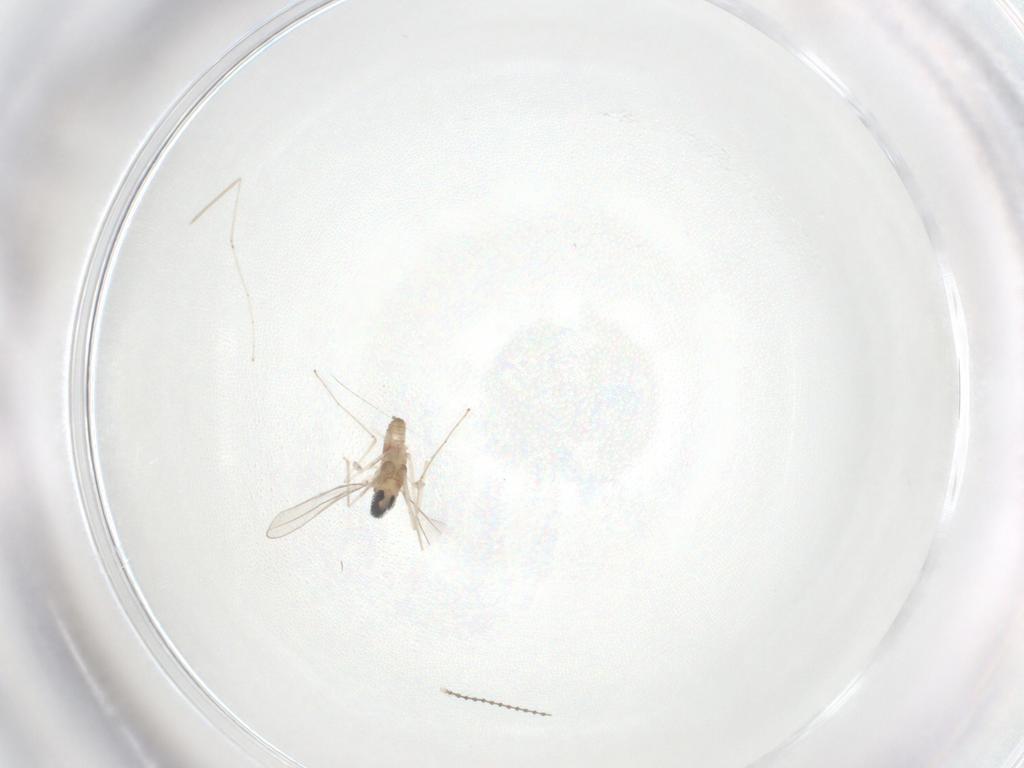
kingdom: Animalia
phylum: Arthropoda
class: Insecta
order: Diptera
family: Cecidomyiidae
